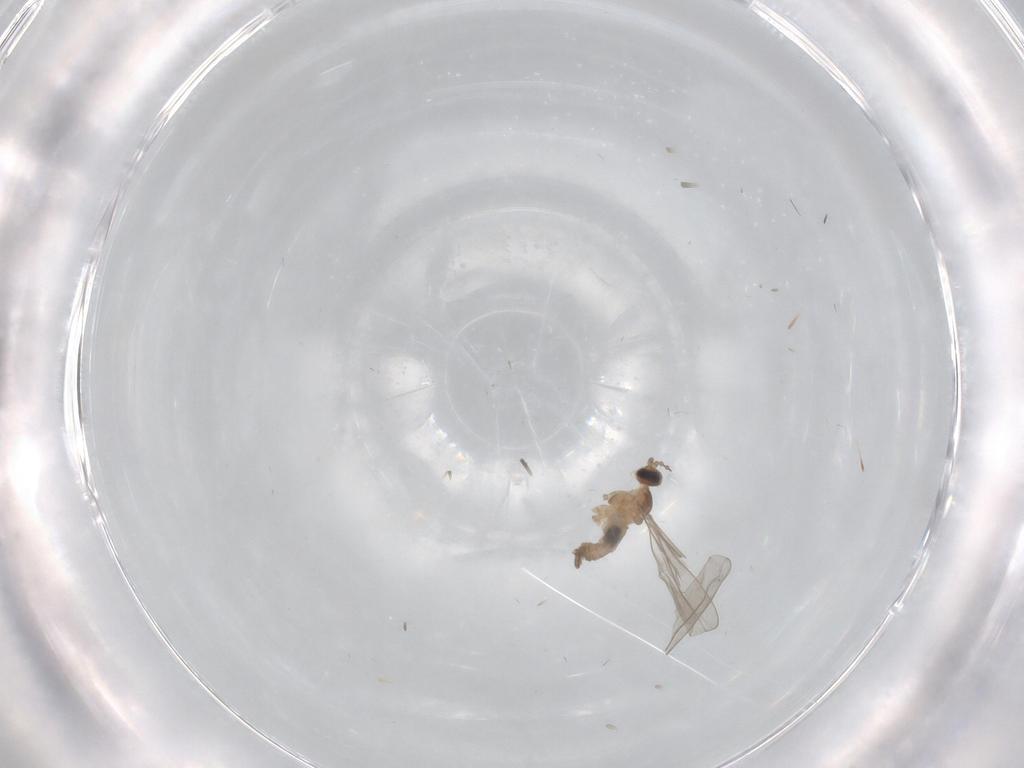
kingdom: Animalia
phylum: Arthropoda
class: Insecta
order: Diptera
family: Cecidomyiidae
